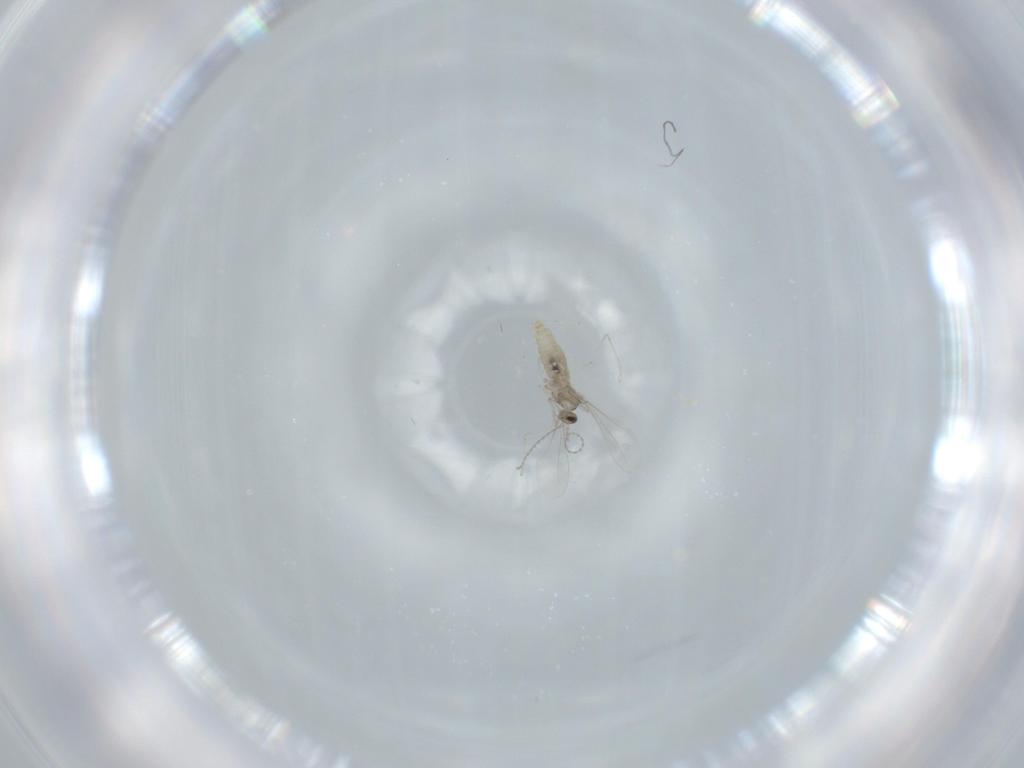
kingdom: Animalia
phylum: Arthropoda
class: Insecta
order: Diptera
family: Cecidomyiidae
